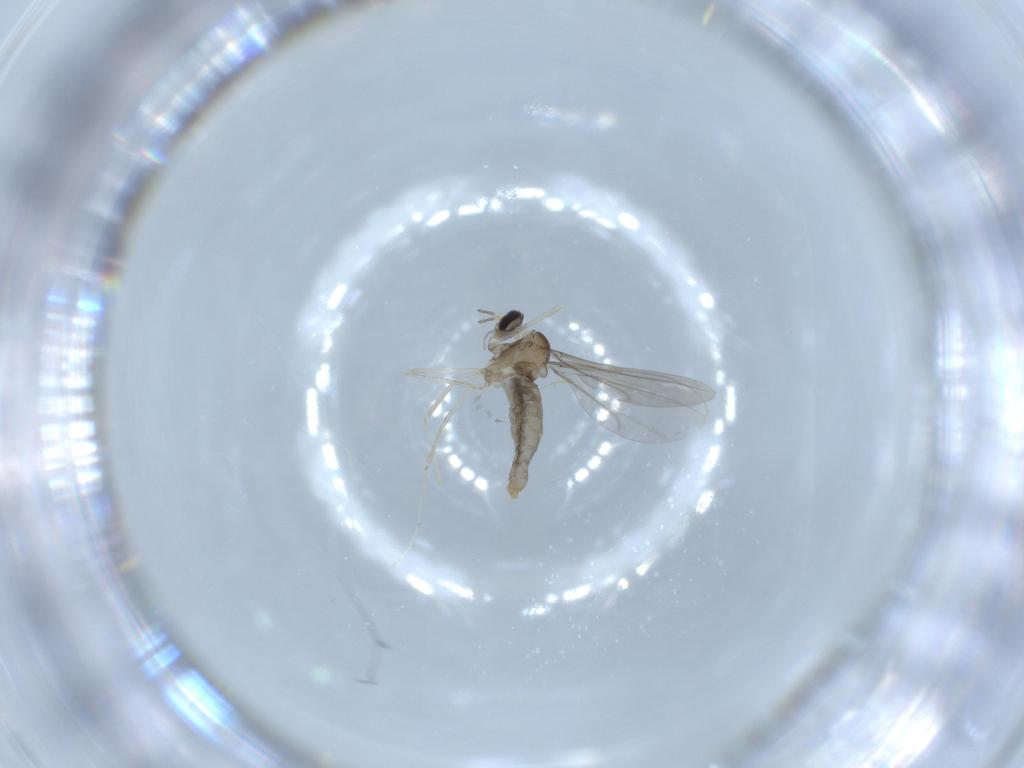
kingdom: Animalia
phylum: Arthropoda
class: Insecta
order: Diptera
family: Cecidomyiidae
